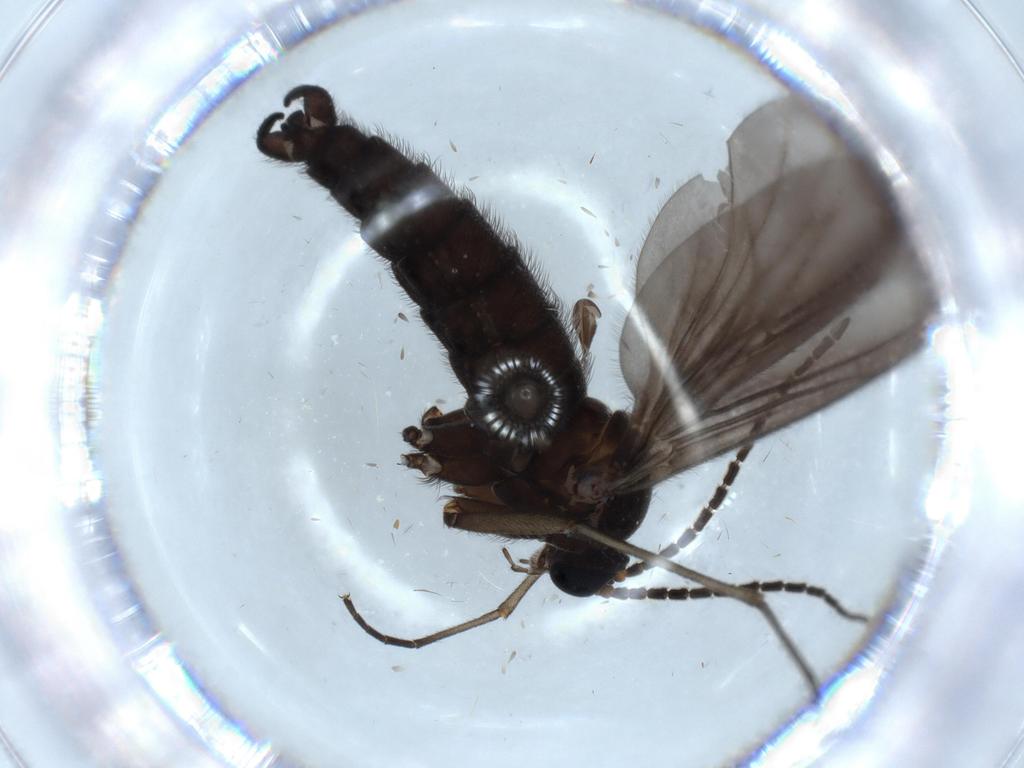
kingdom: Animalia
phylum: Arthropoda
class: Insecta
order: Diptera
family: Sciaridae
